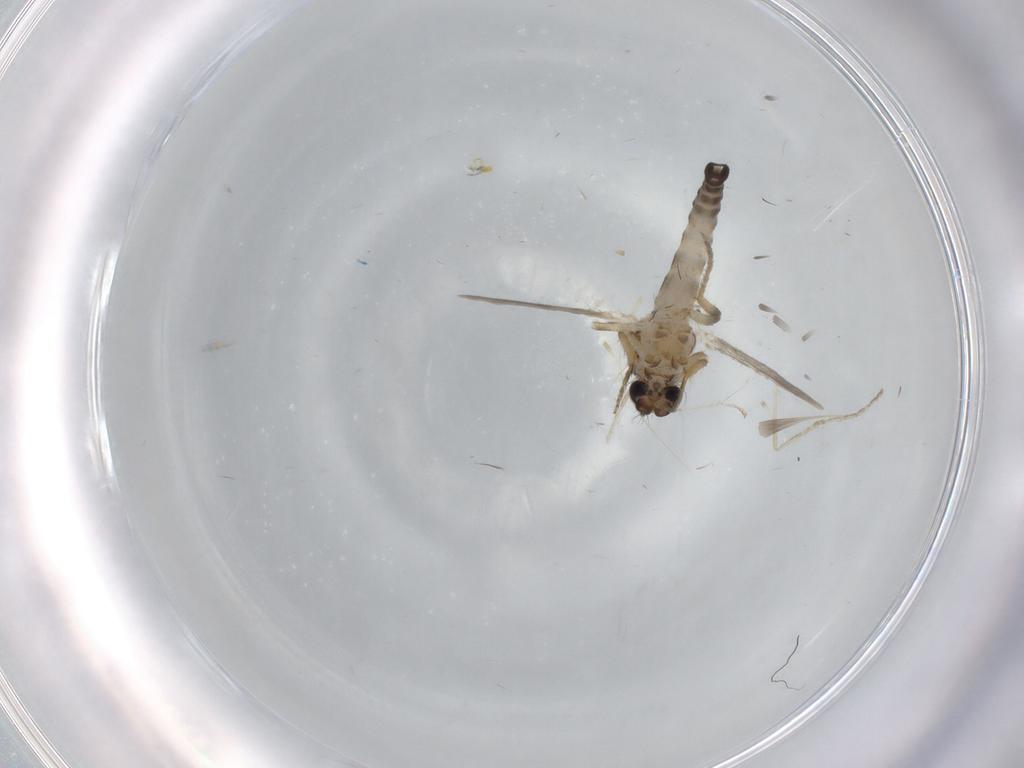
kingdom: Animalia
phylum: Arthropoda
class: Insecta
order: Diptera
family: Ceratopogonidae
